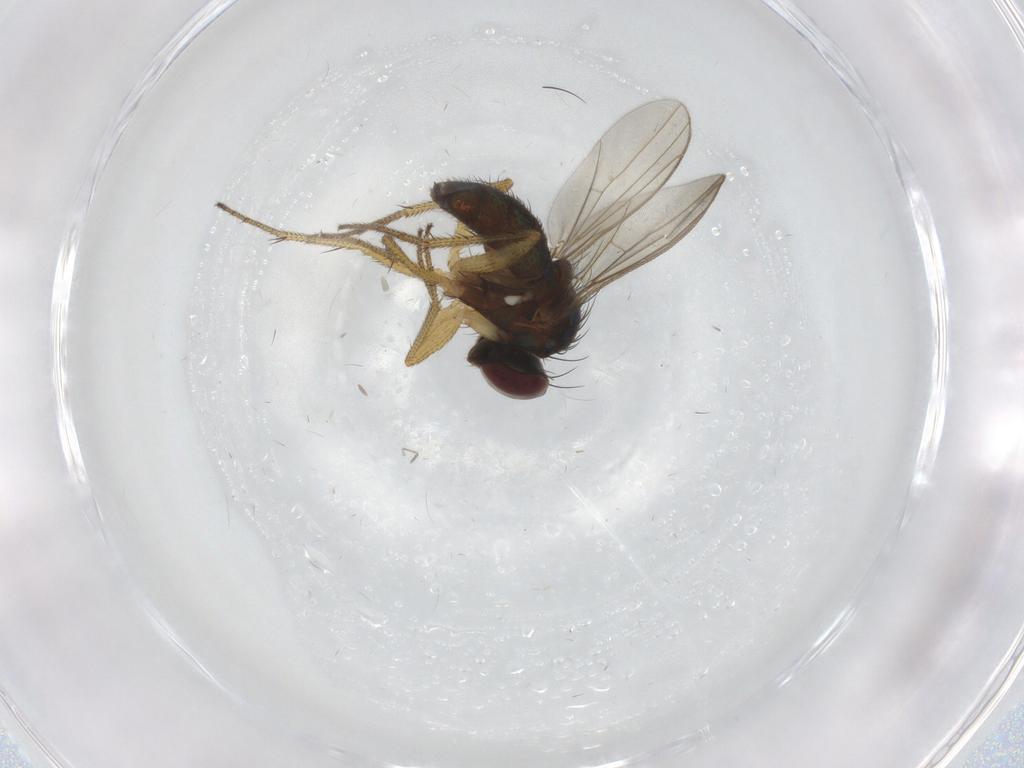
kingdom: Animalia
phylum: Arthropoda
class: Insecta
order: Diptera
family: Dolichopodidae
